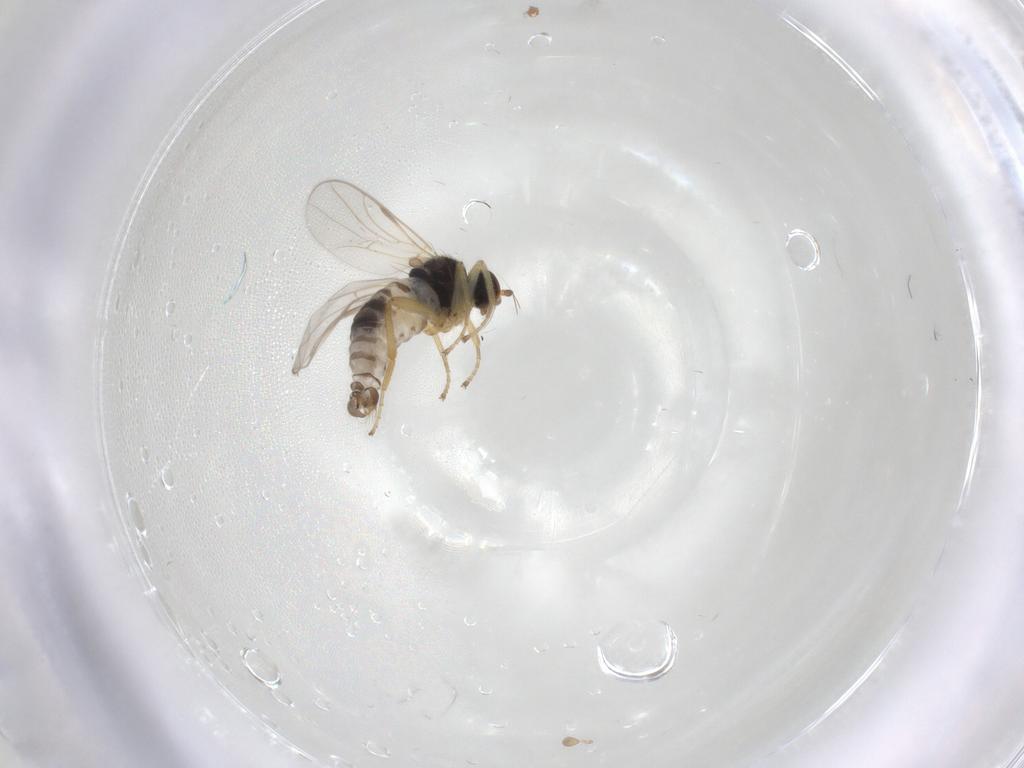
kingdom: Animalia
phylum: Arthropoda
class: Insecta
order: Diptera
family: Hybotidae
